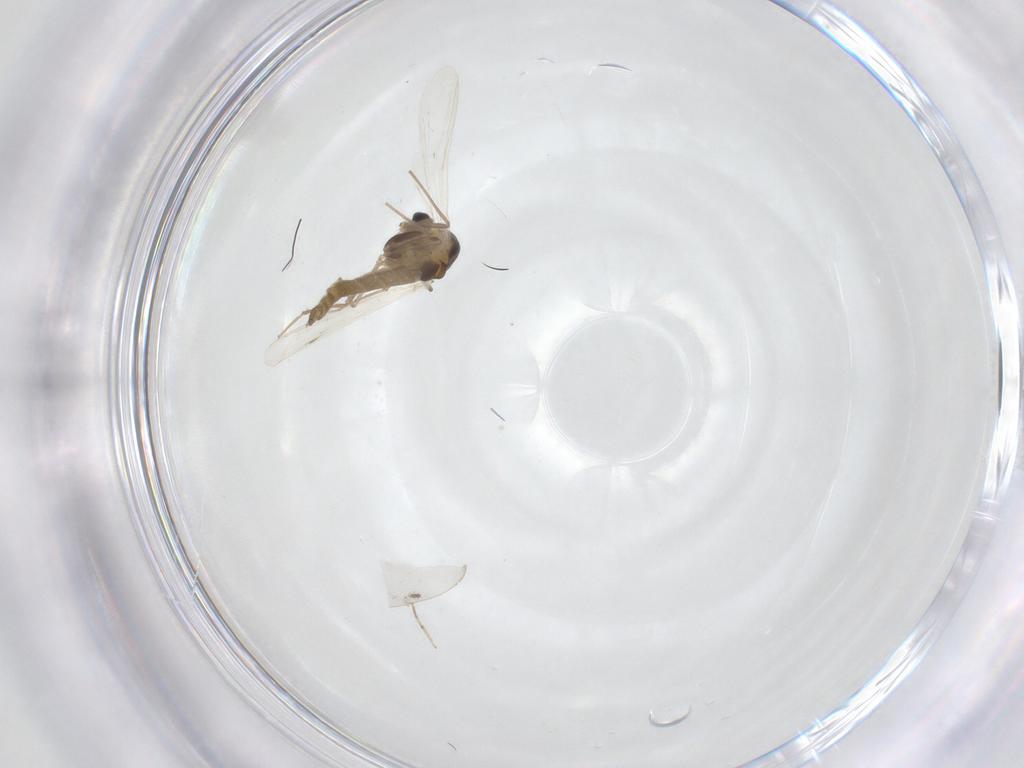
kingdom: Animalia
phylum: Arthropoda
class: Insecta
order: Diptera
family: Chironomidae
